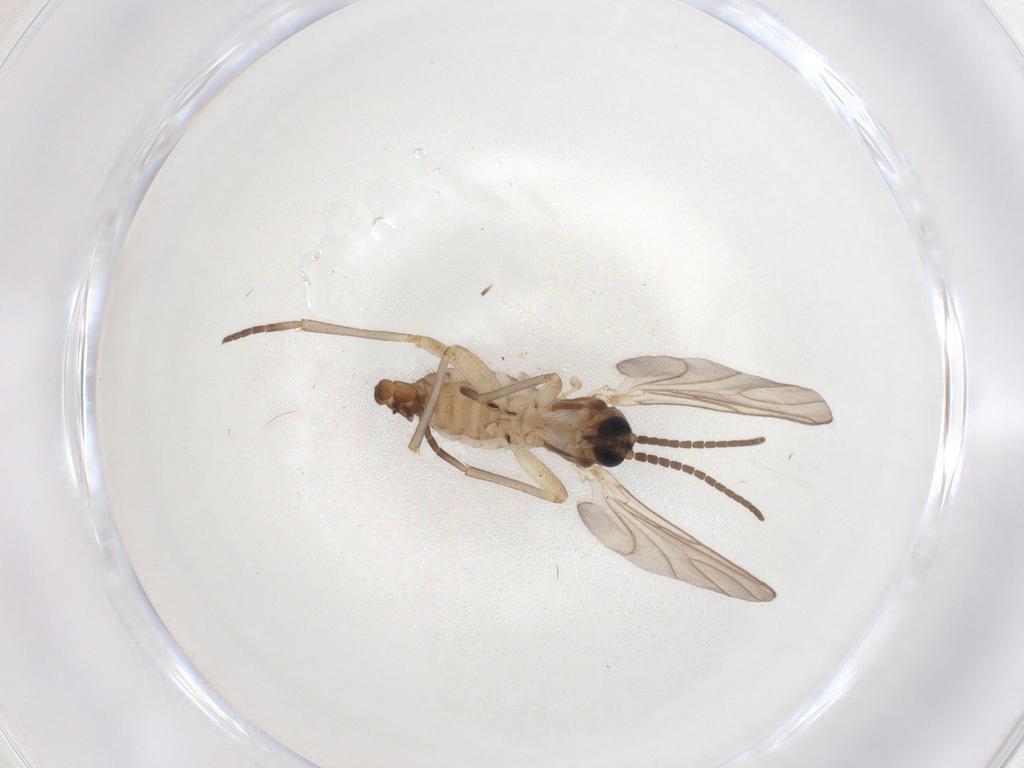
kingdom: Animalia
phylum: Arthropoda
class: Insecta
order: Diptera
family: Sciaridae
